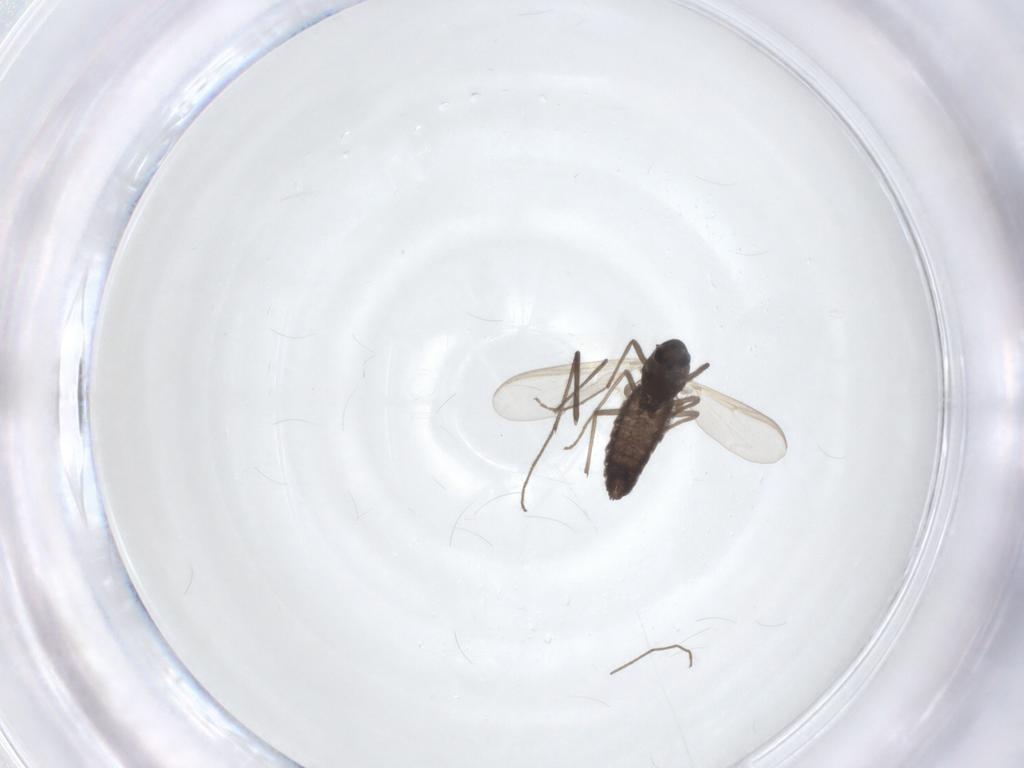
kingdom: Animalia
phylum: Arthropoda
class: Insecta
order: Diptera
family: Chironomidae
